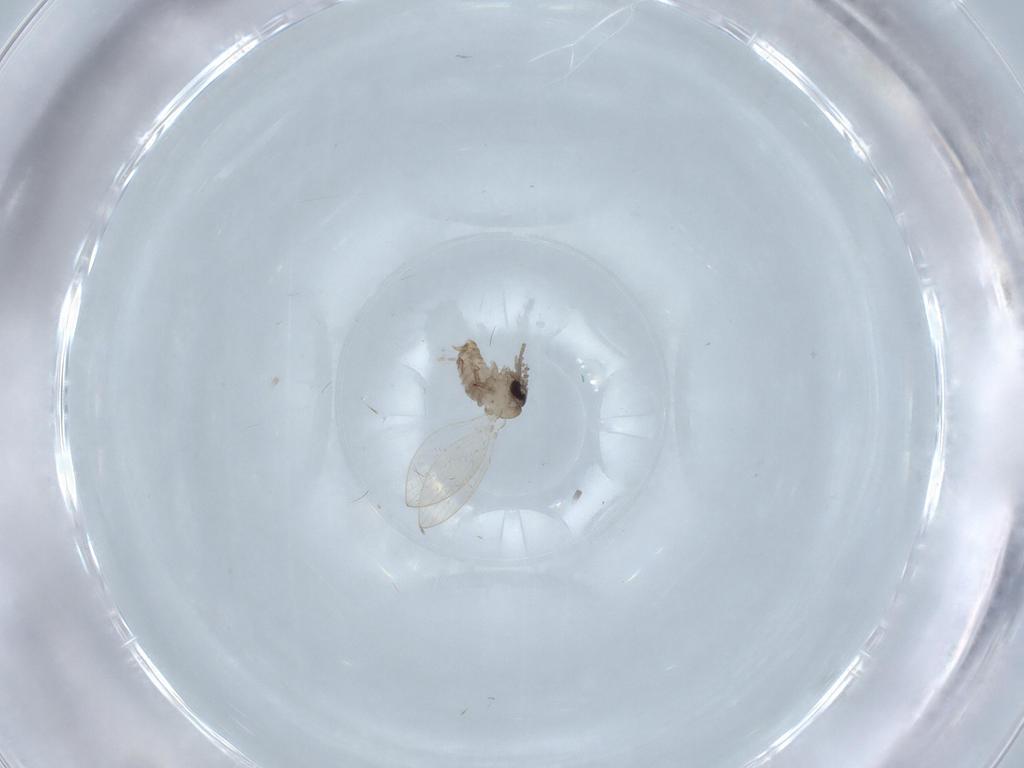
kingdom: Animalia
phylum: Arthropoda
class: Insecta
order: Diptera
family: Psychodidae
